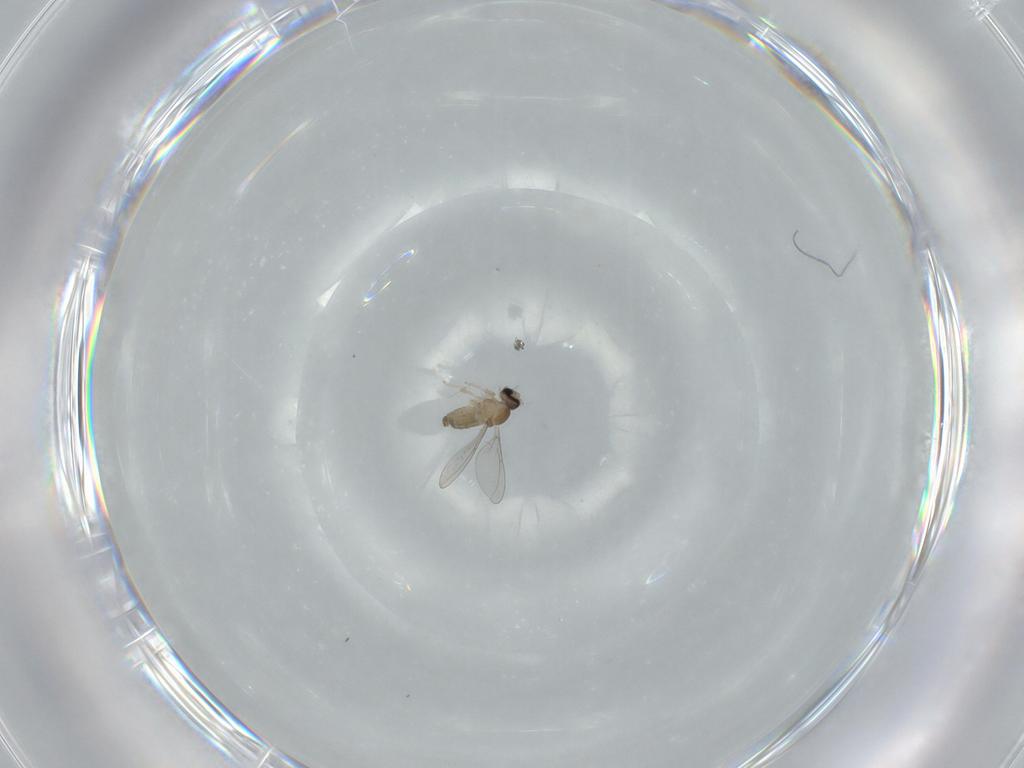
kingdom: Animalia
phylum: Arthropoda
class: Insecta
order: Diptera
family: Cecidomyiidae
